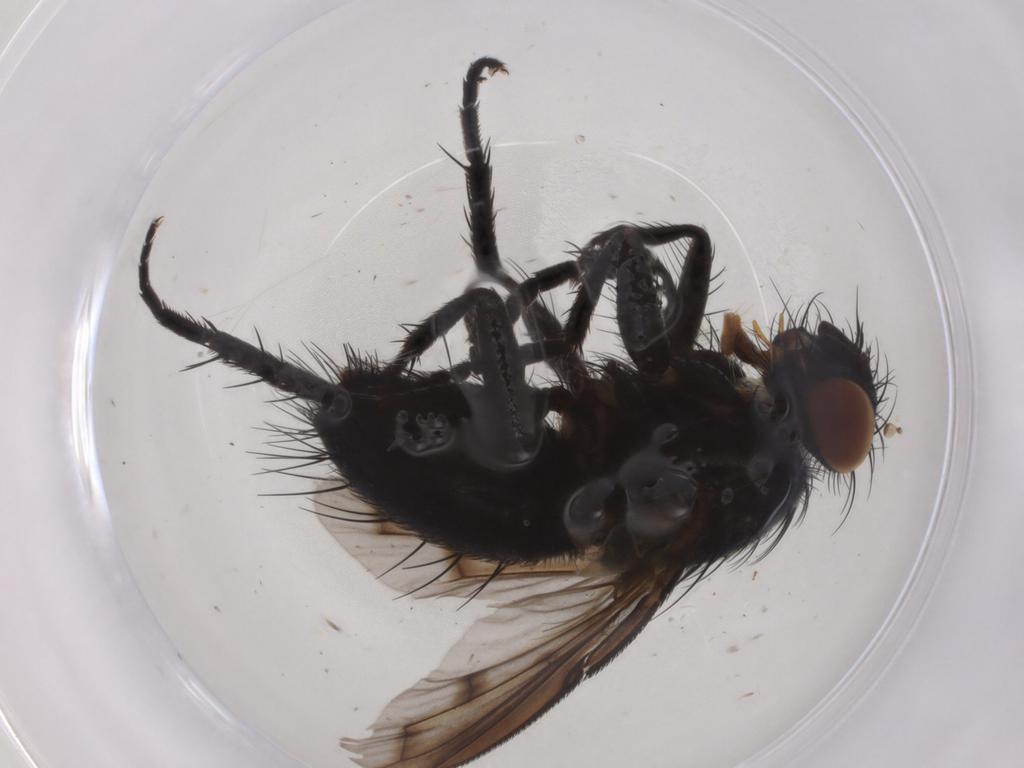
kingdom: Animalia
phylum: Arthropoda
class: Insecta
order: Diptera
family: Tachinidae
